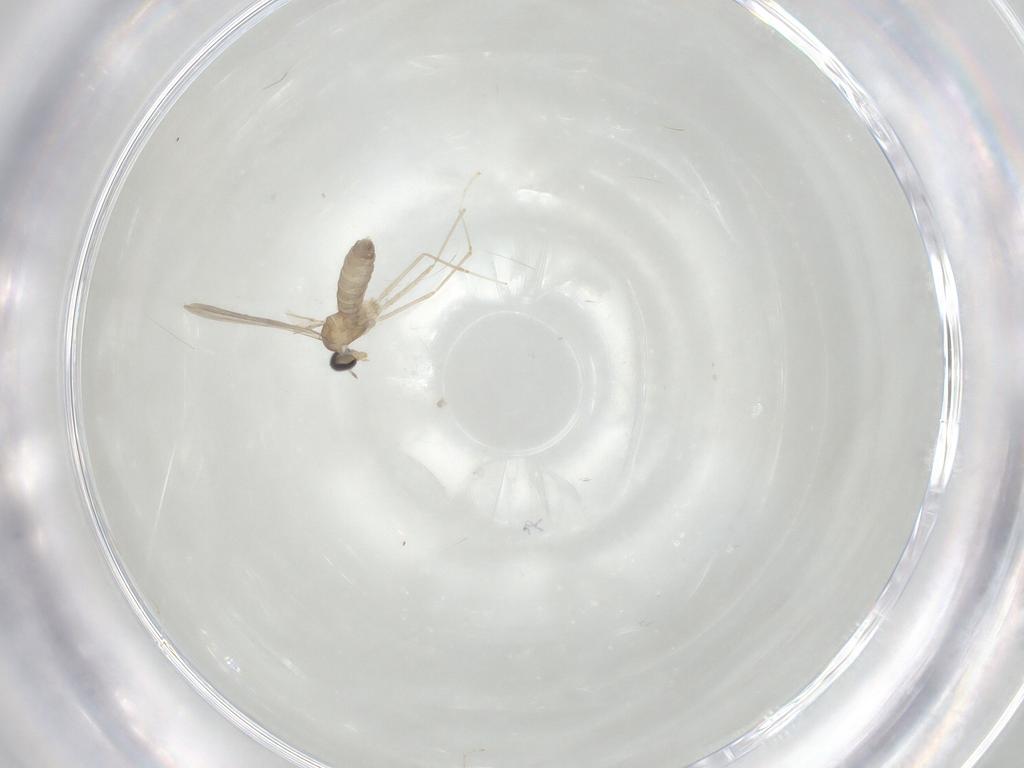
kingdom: Animalia
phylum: Arthropoda
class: Insecta
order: Diptera
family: Cecidomyiidae
